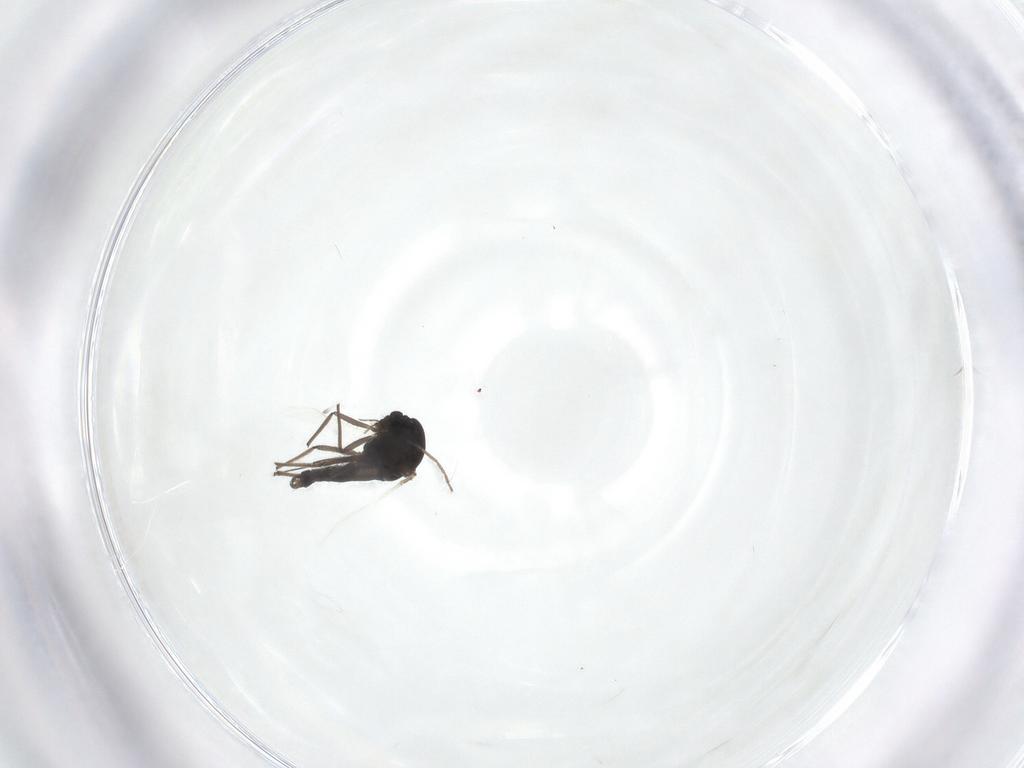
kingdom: Animalia
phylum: Arthropoda
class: Insecta
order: Diptera
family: Chironomidae
